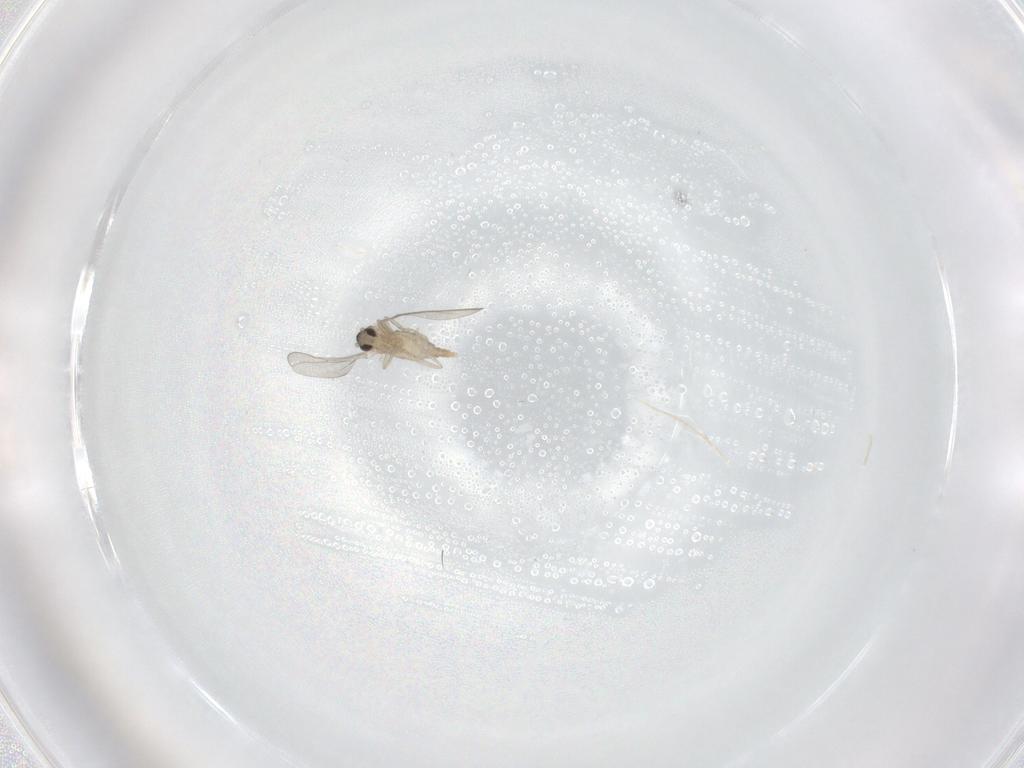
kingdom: Animalia
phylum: Arthropoda
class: Insecta
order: Diptera
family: Cecidomyiidae
